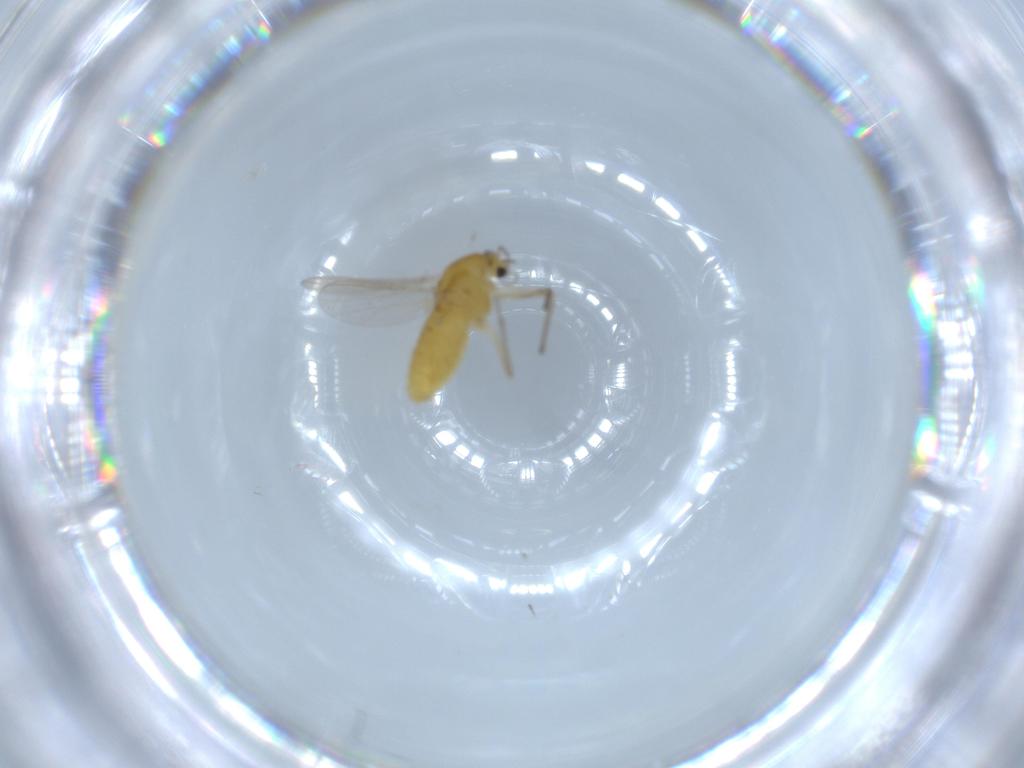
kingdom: Animalia
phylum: Arthropoda
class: Insecta
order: Diptera
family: Chironomidae
